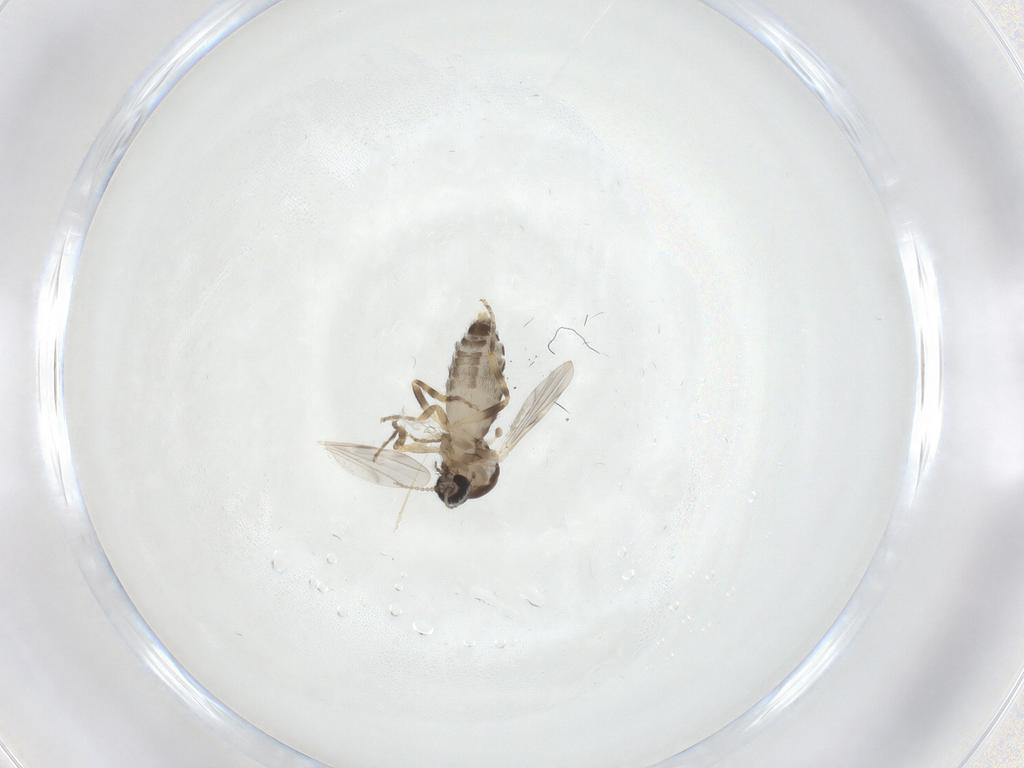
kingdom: Animalia
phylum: Arthropoda
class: Insecta
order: Diptera
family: Ceratopogonidae
